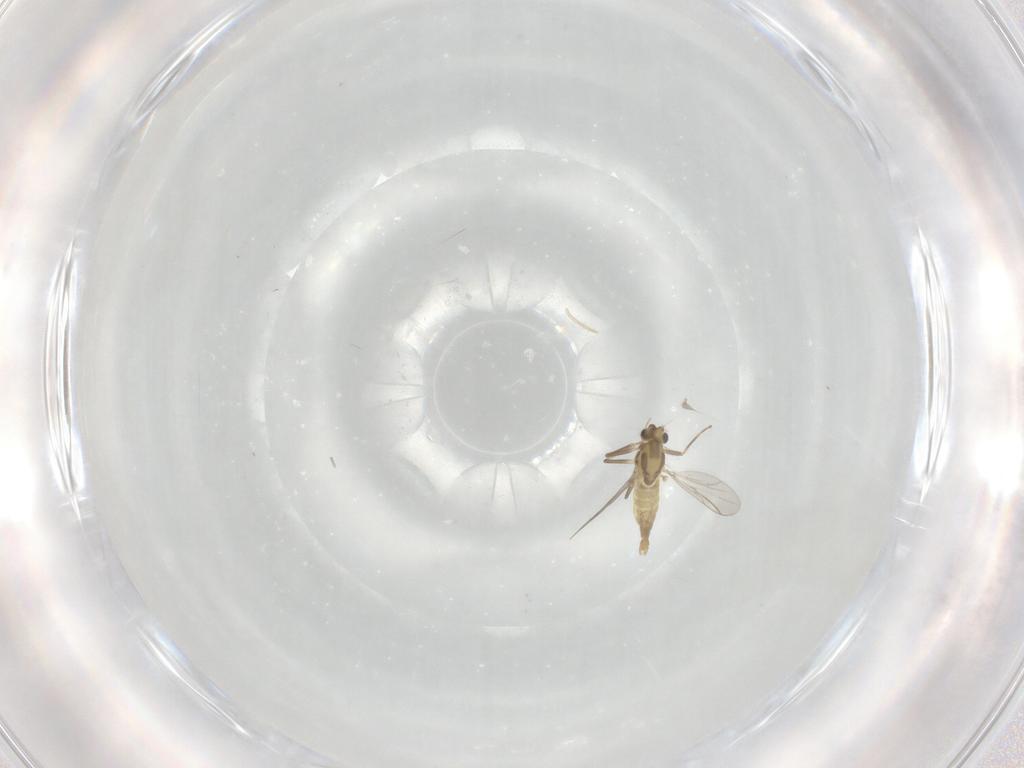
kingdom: Animalia
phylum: Arthropoda
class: Insecta
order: Diptera
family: Chironomidae
